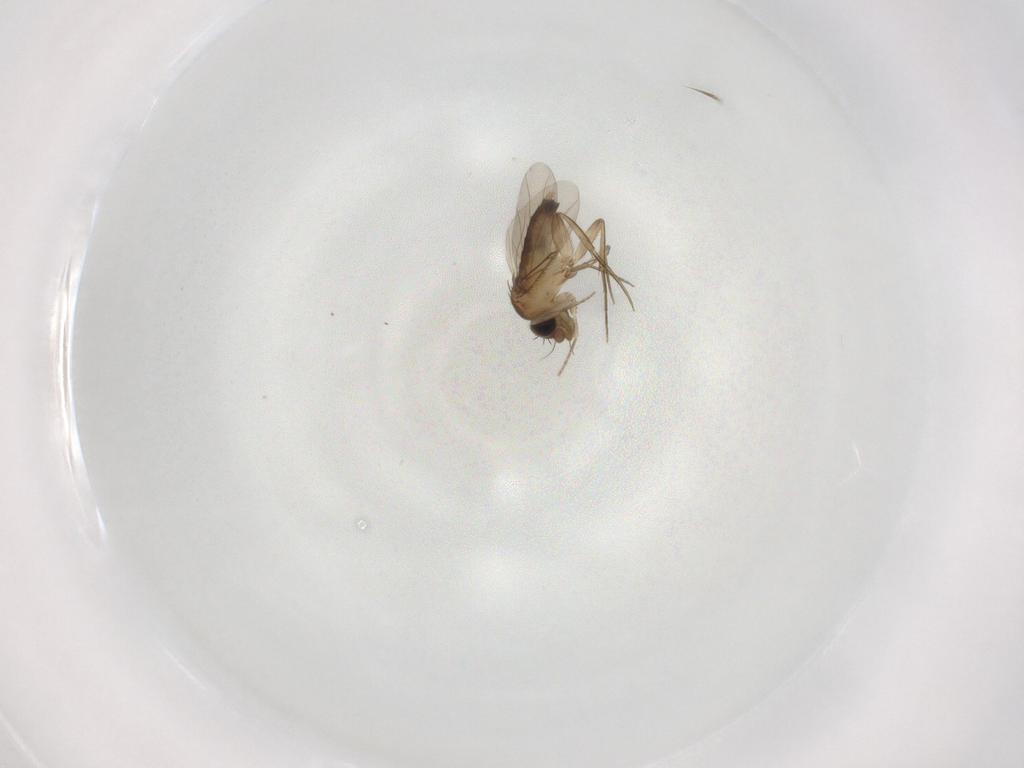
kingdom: Animalia
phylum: Arthropoda
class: Insecta
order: Diptera
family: Phoridae
